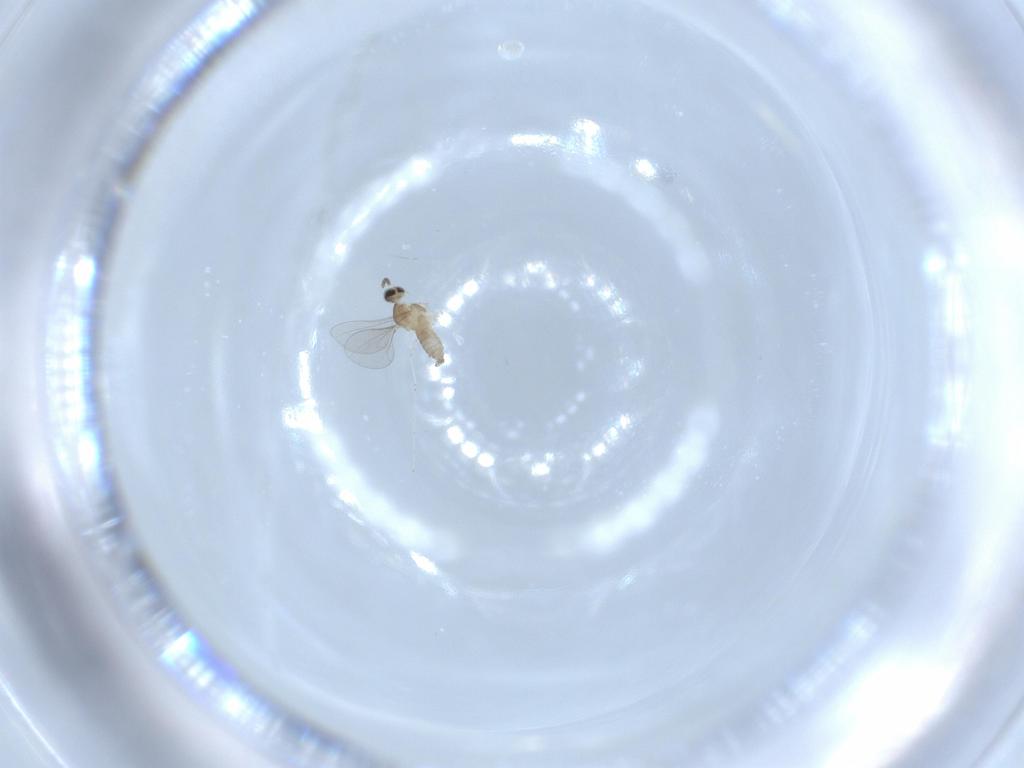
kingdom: Animalia
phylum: Arthropoda
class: Insecta
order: Diptera
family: Cecidomyiidae
